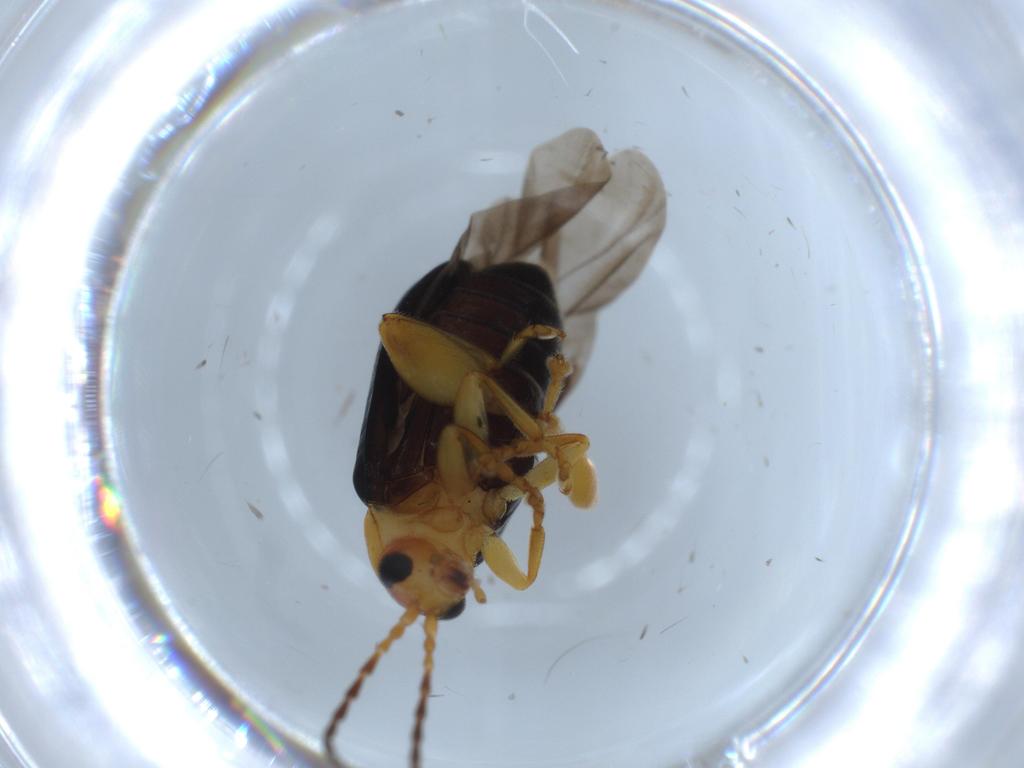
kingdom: Animalia
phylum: Arthropoda
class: Insecta
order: Coleoptera
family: Chrysomelidae
